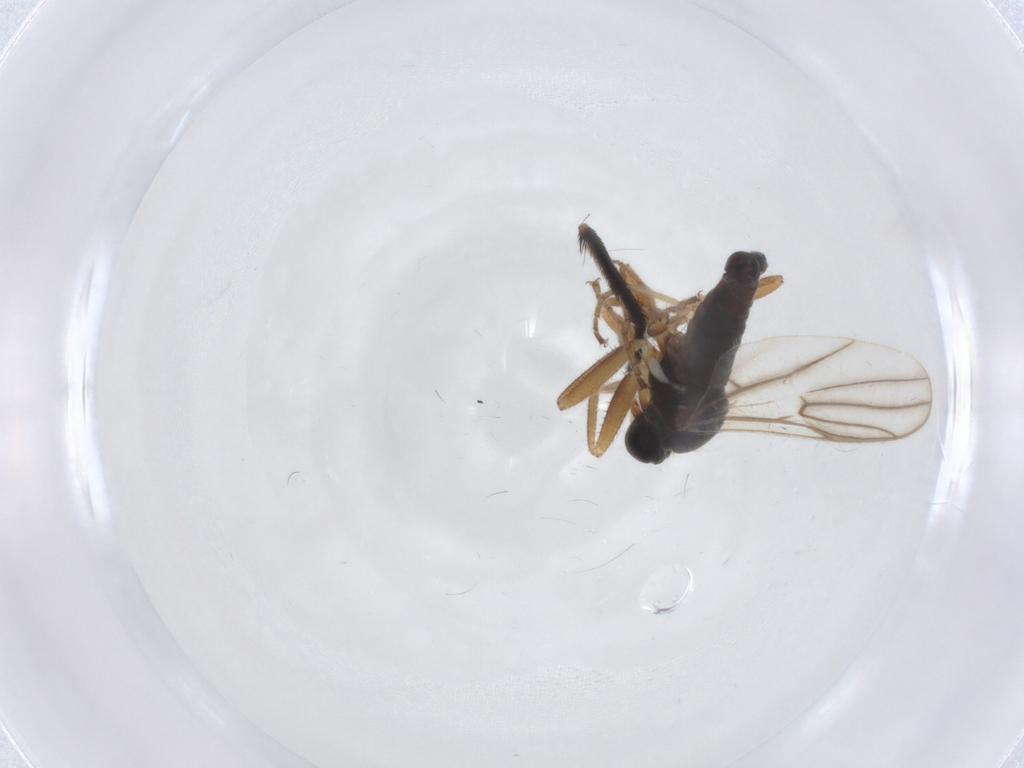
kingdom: Animalia
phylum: Arthropoda
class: Insecta
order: Diptera
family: Hybotidae
